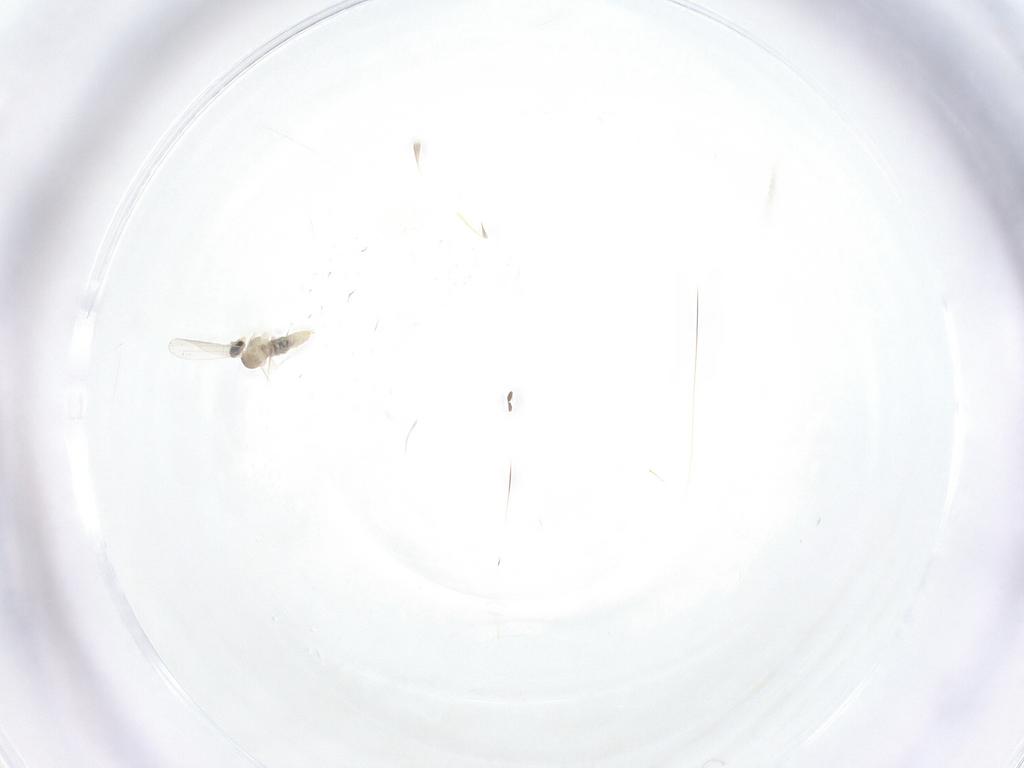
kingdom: Animalia
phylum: Arthropoda
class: Insecta
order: Diptera
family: Cecidomyiidae
